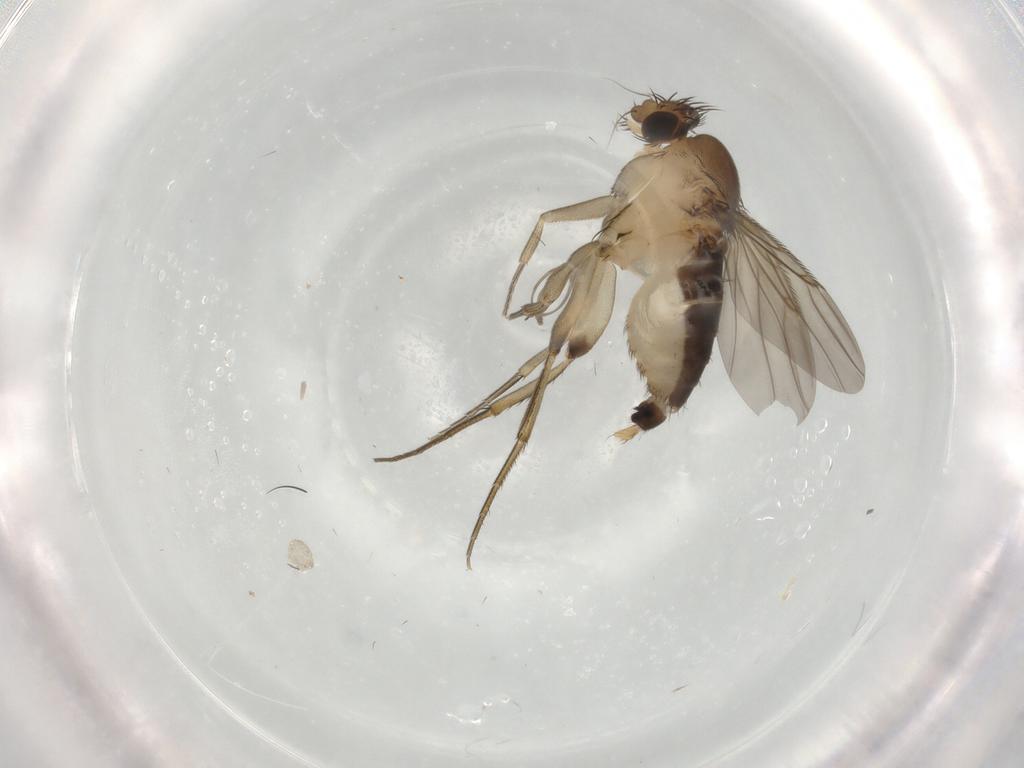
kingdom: Animalia
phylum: Arthropoda
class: Insecta
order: Diptera
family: Phoridae
